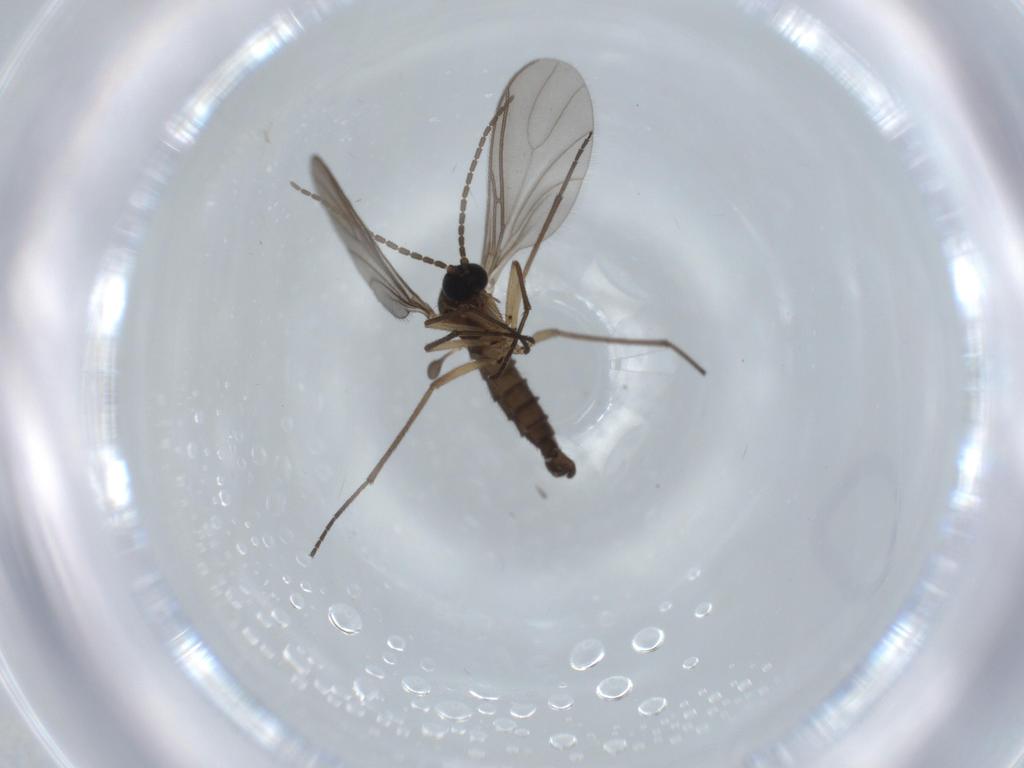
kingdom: Animalia
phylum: Arthropoda
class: Insecta
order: Diptera
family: Sciaridae
